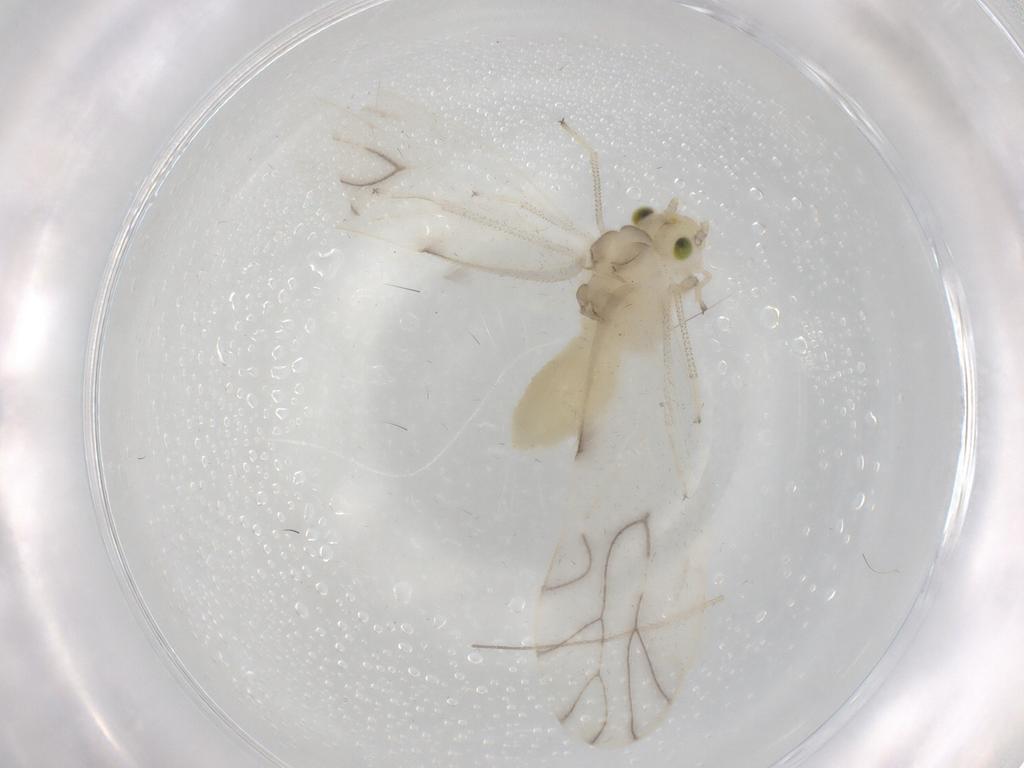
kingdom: Animalia
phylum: Arthropoda
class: Insecta
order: Psocodea
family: Caeciliusidae
